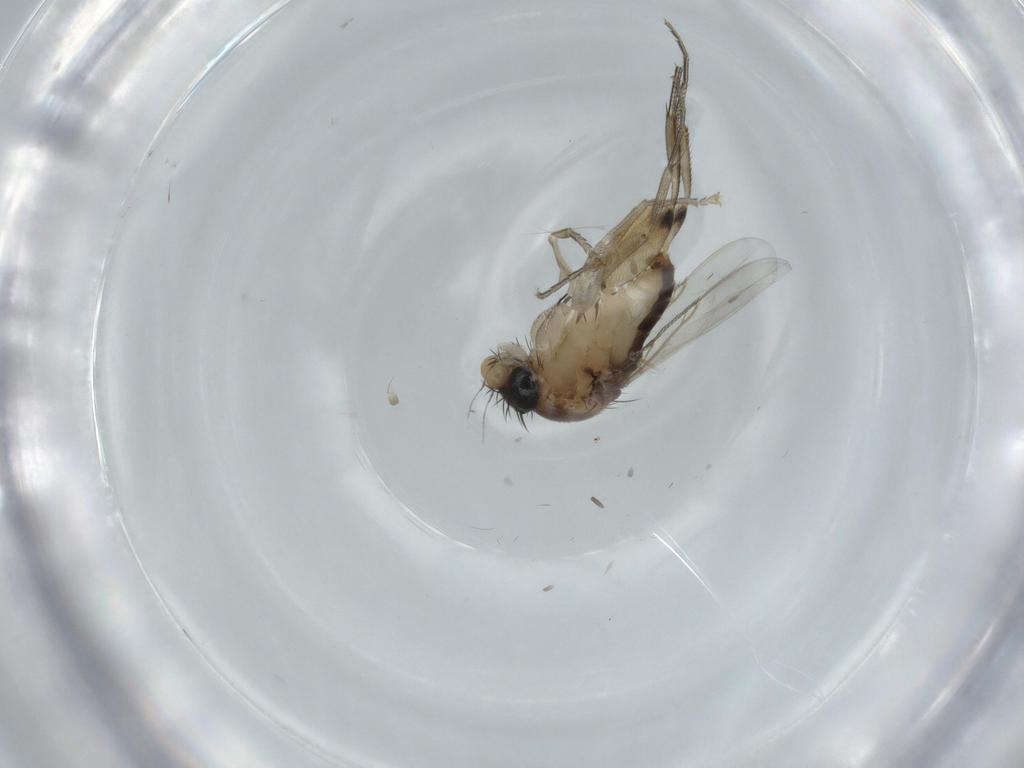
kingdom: Animalia
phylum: Arthropoda
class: Insecta
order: Diptera
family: Phoridae
